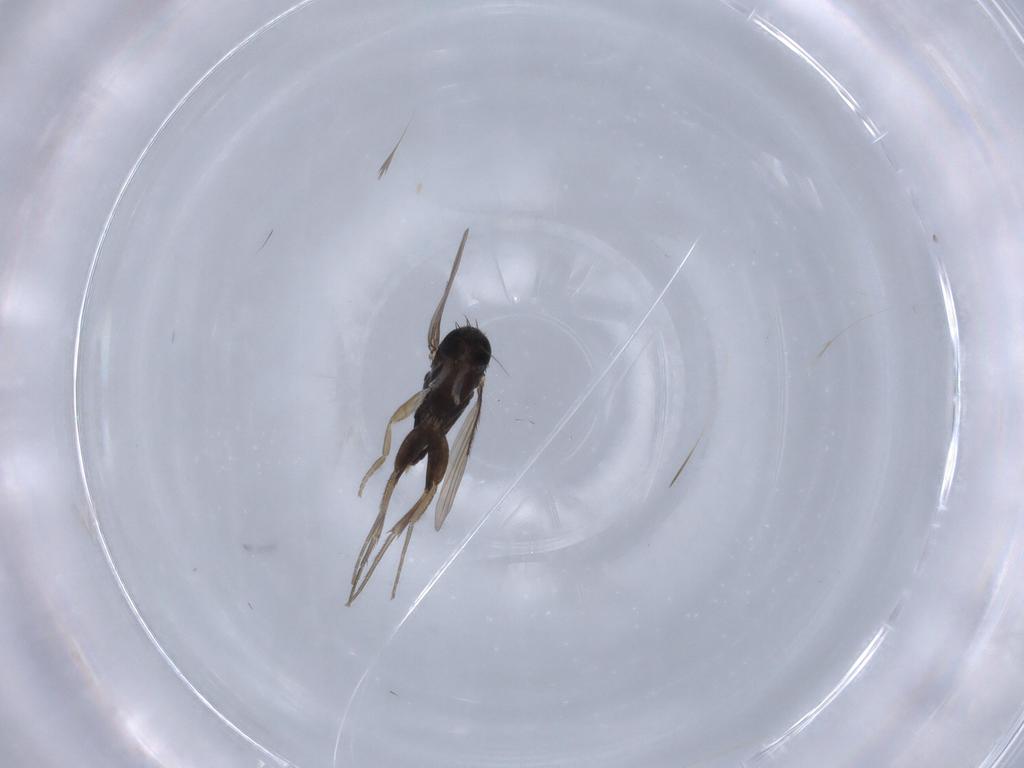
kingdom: Animalia
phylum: Arthropoda
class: Insecta
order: Diptera
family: Phoridae
